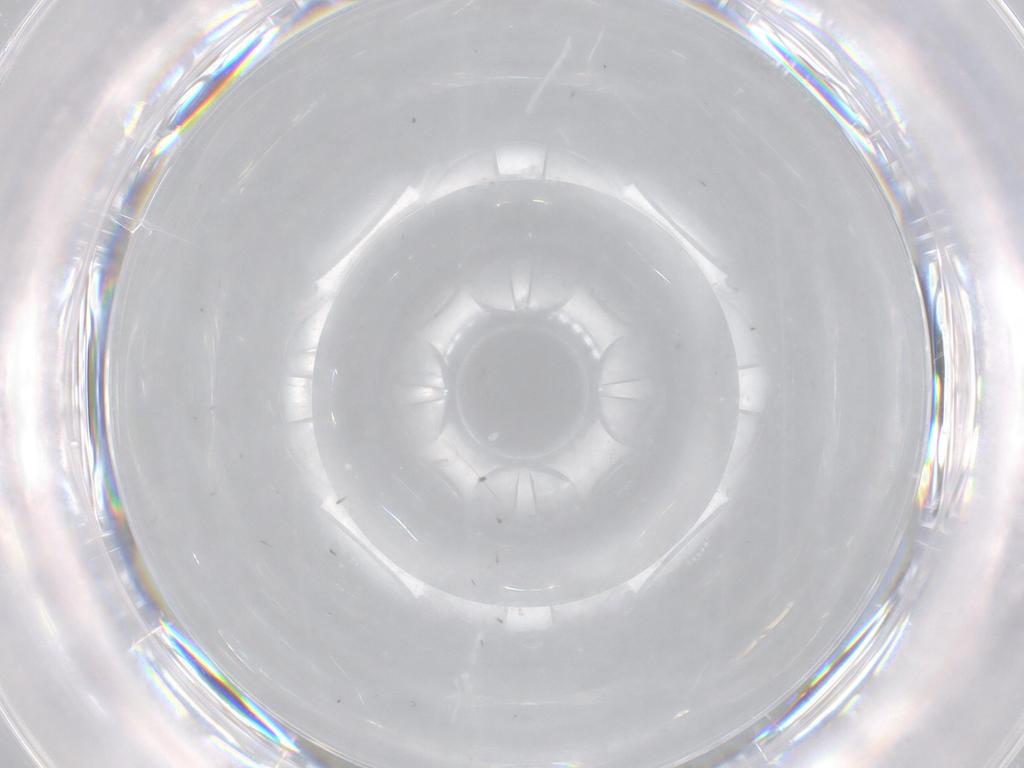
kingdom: Animalia
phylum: Arthropoda
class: Insecta
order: Diptera
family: Cecidomyiidae
